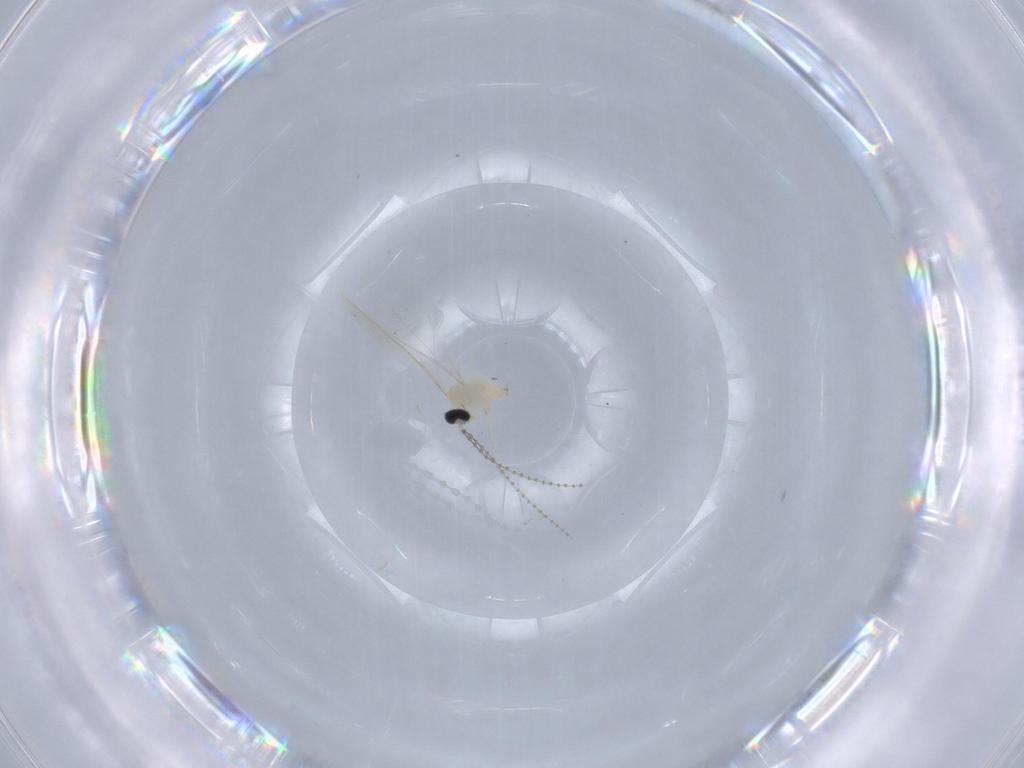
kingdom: Animalia
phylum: Arthropoda
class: Insecta
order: Diptera
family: Cecidomyiidae
